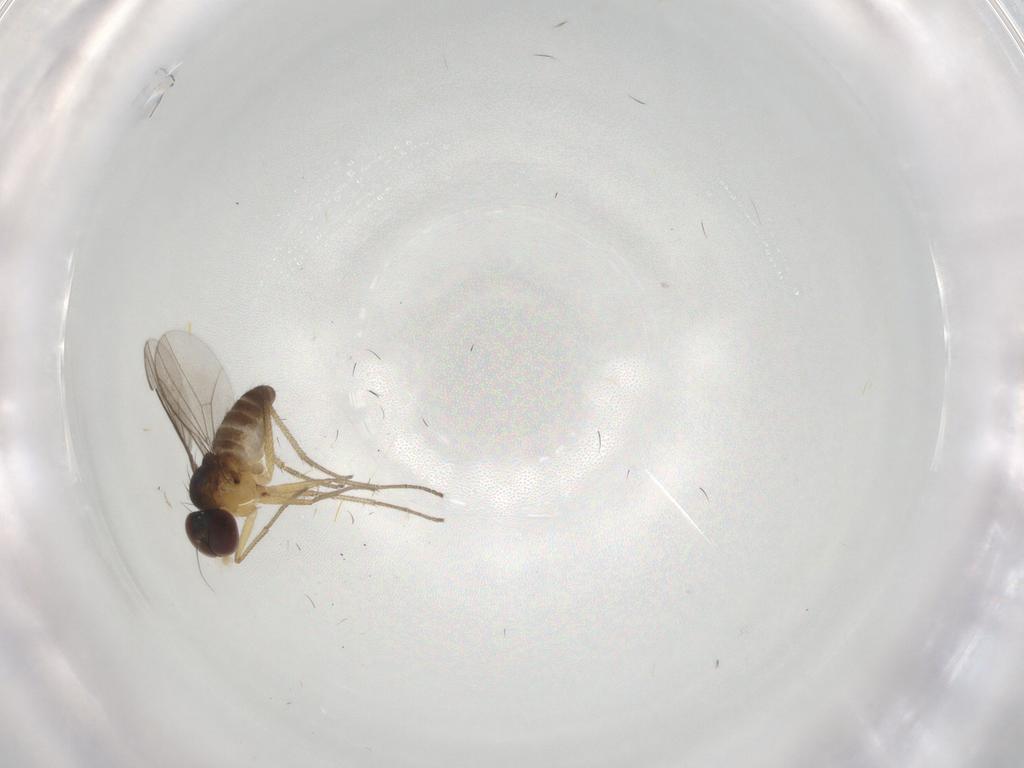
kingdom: Animalia
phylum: Arthropoda
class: Insecta
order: Diptera
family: Dolichopodidae
